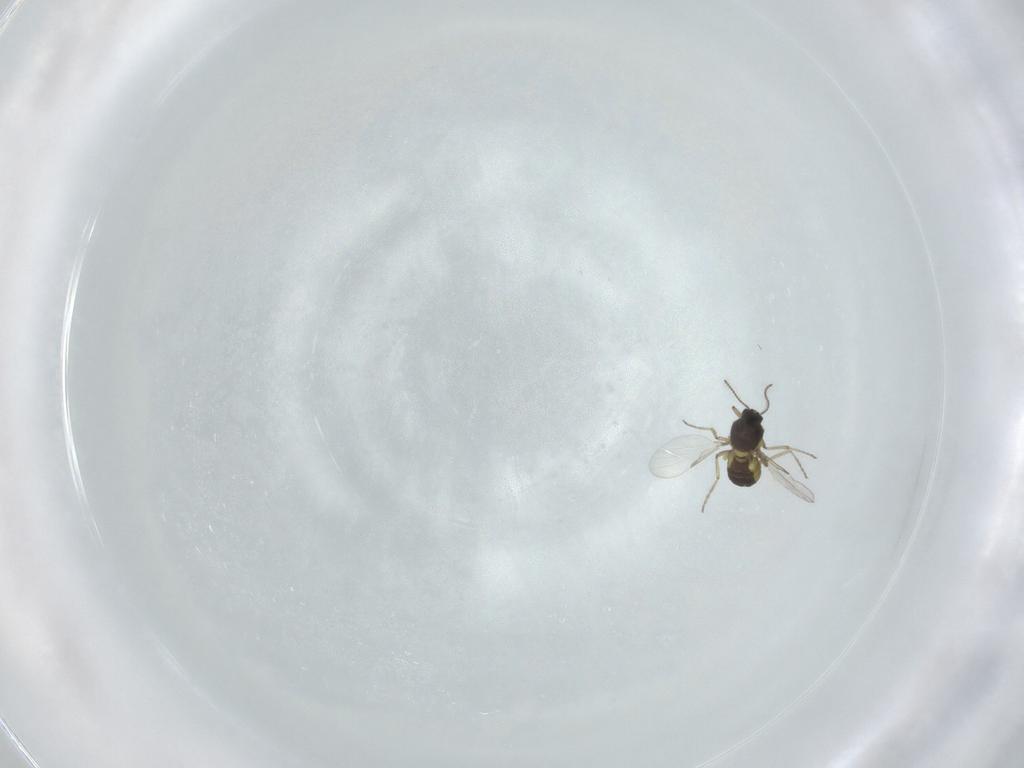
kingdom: Animalia
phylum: Arthropoda
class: Insecta
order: Diptera
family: Ceratopogonidae
